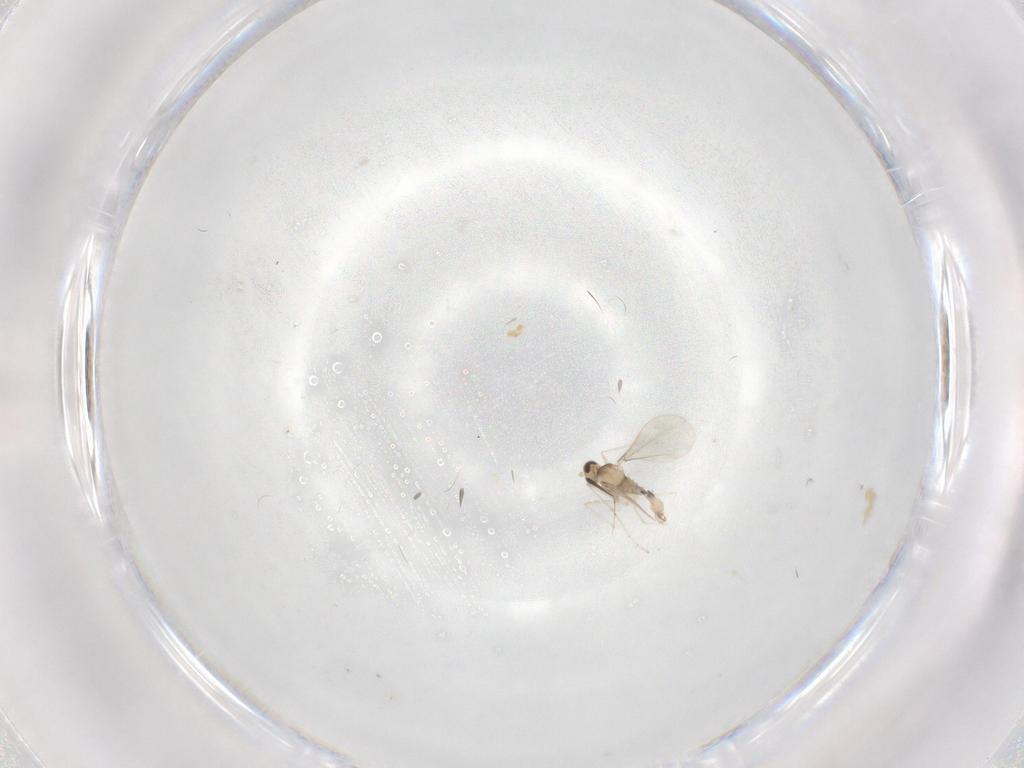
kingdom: Animalia
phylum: Arthropoda
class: Insecta
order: Diptera
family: Cecidomyiidae
